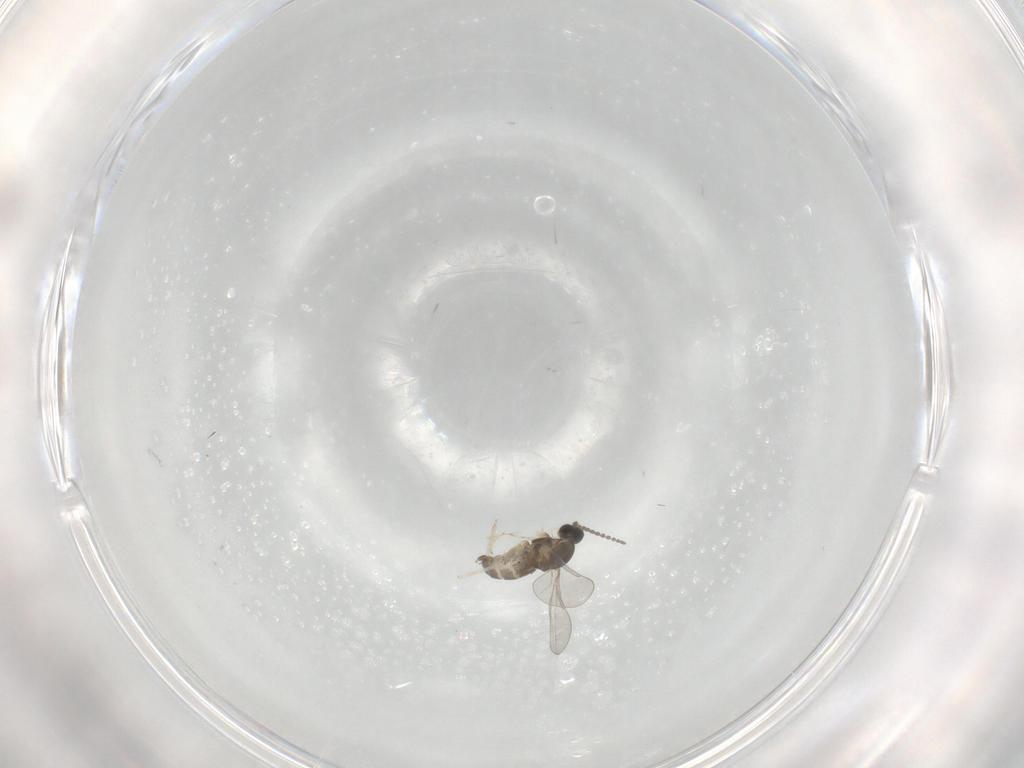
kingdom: Animalia
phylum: Arthropoda
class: Insecta
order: Diptera
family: Cecidomyiidae
